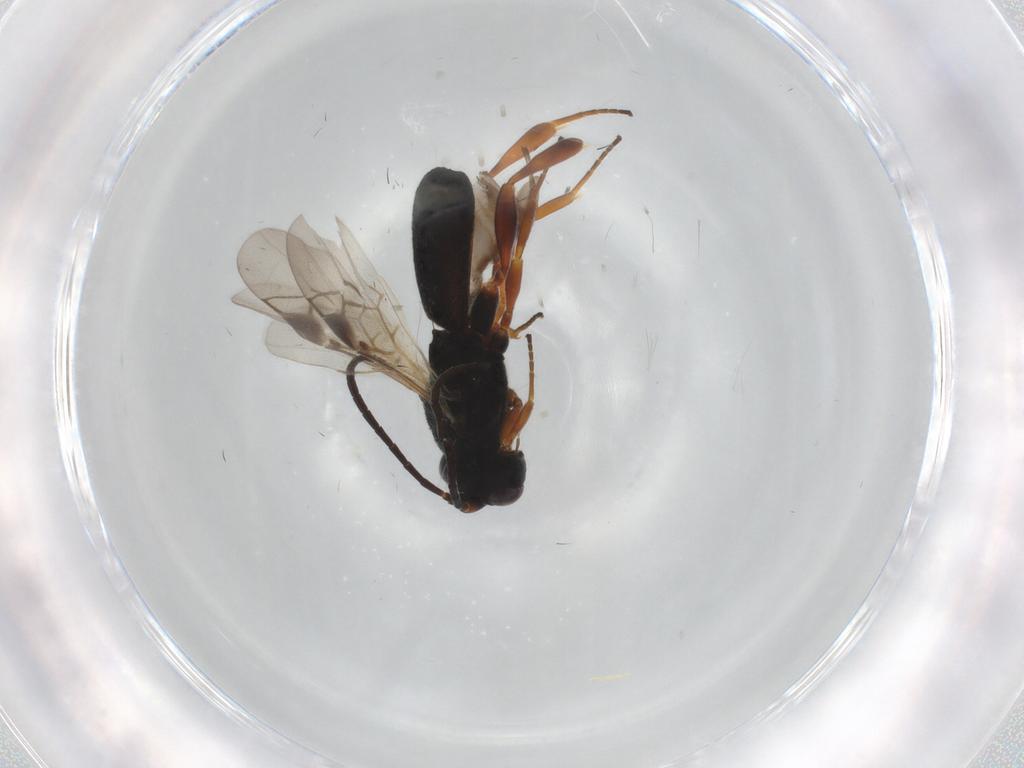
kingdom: Animalia
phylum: Arthropoda
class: Insecta
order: Hymenoptera
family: Braconidae
